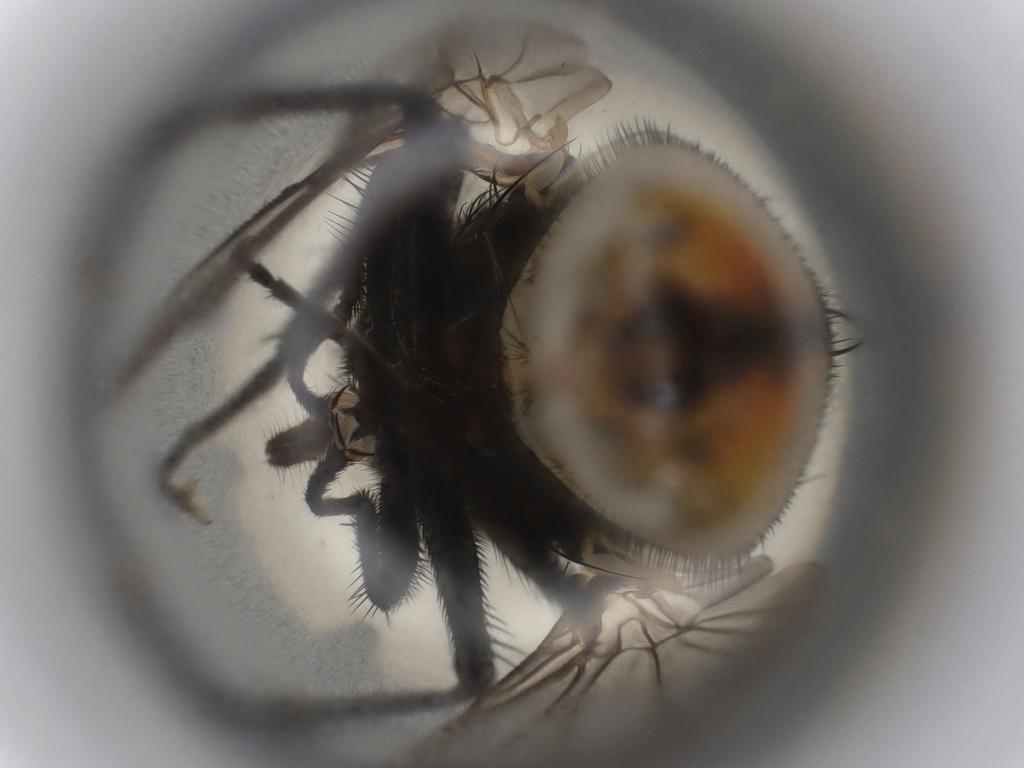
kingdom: Animalia
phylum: Arthropoda
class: Insecta
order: Diptera
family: Muscidae
